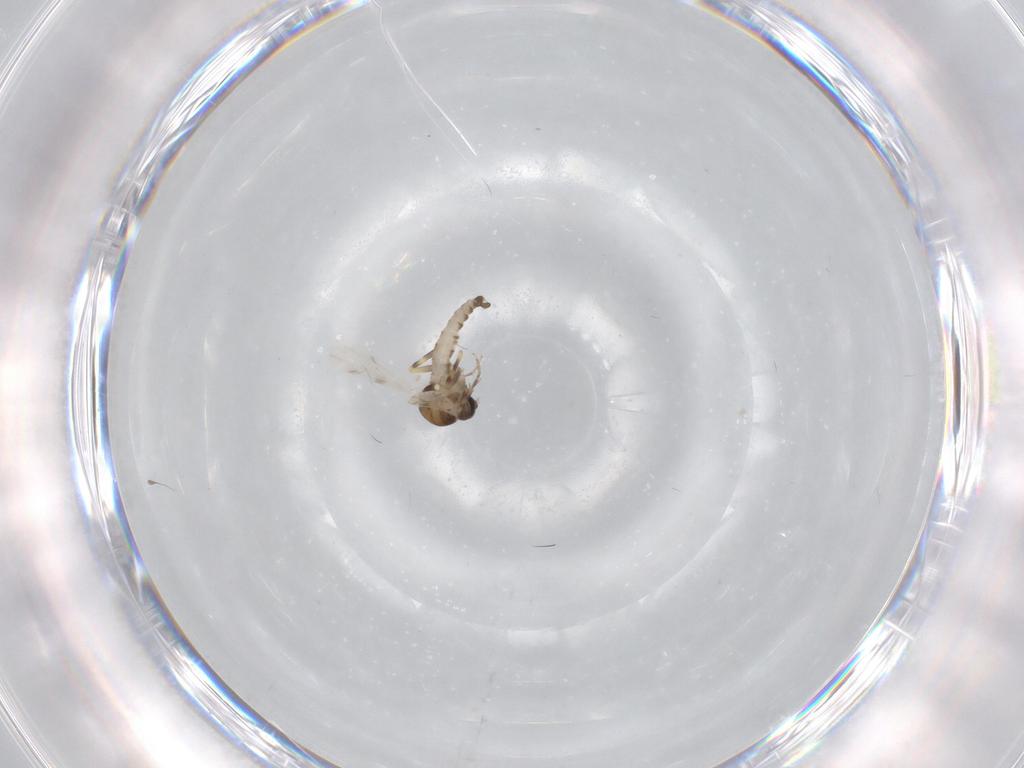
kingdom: Animalia
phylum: Arthropoda
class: Insecta
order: Diptera
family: Ceratopogonidae
